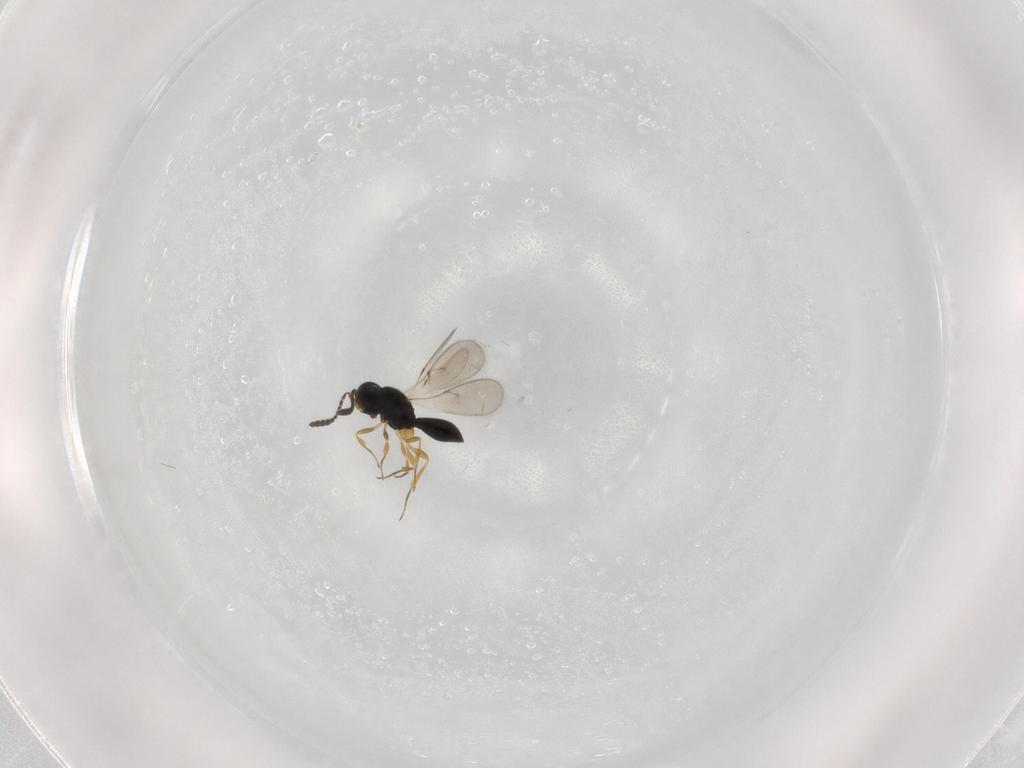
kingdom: Animalia
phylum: Arthropoda
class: Insecta
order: Hymenoptera
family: Scelionidae
